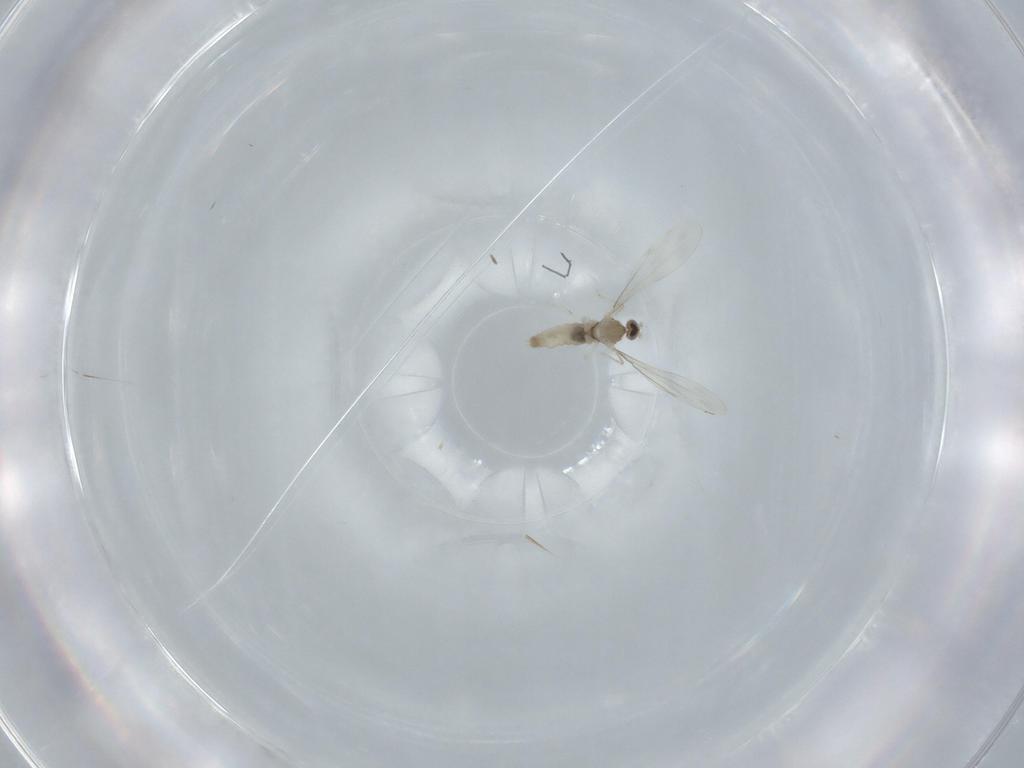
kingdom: Animalia
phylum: Arthropoda
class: Insecta
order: Diptera
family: Cecidomyiidae
